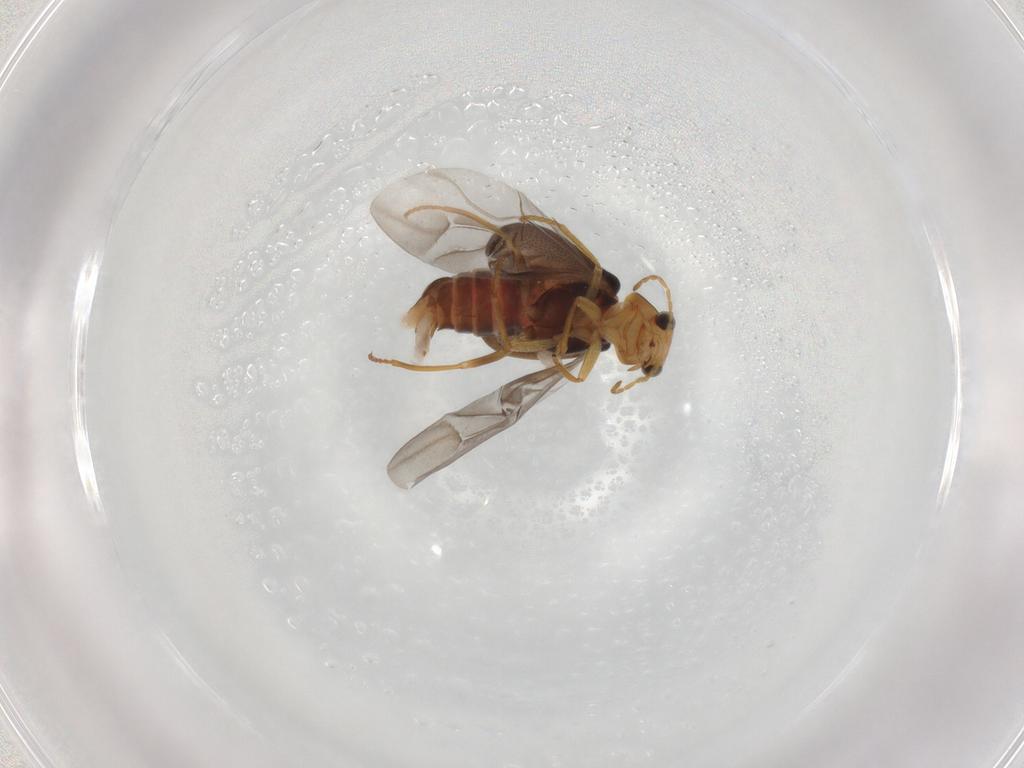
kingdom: Animalia
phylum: Arthropoda
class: Insecta
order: Coleoptera
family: Melyridae
